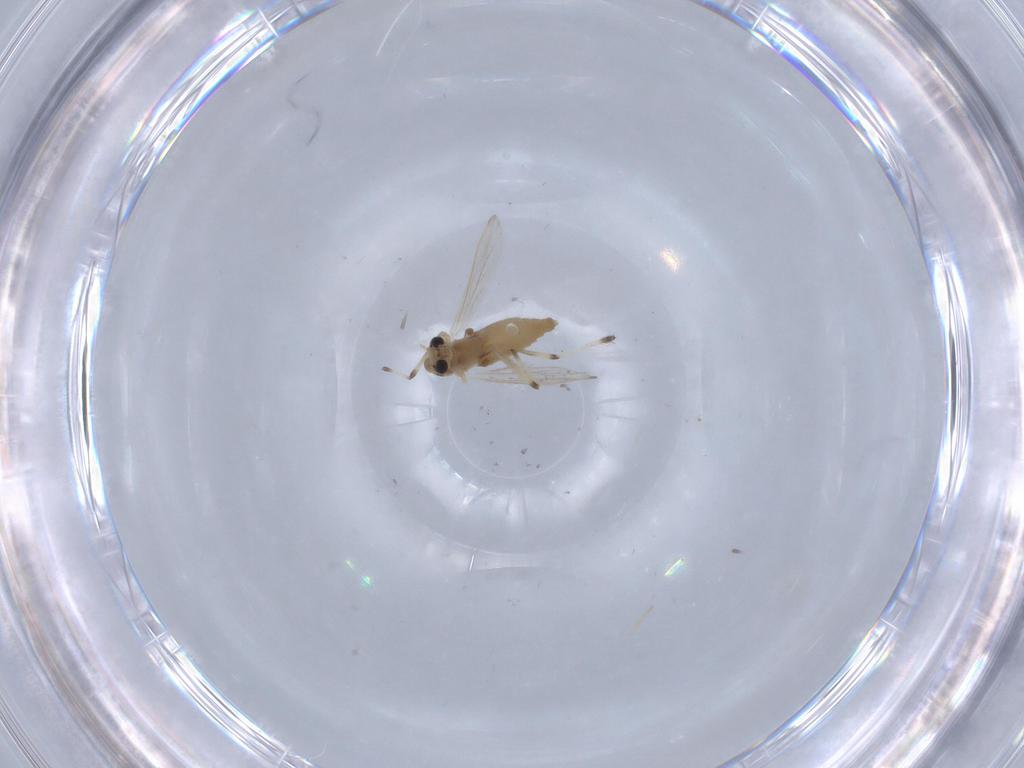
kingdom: Animalia
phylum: Arthropoda
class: Insecta
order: Diptera
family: Chironomidae
